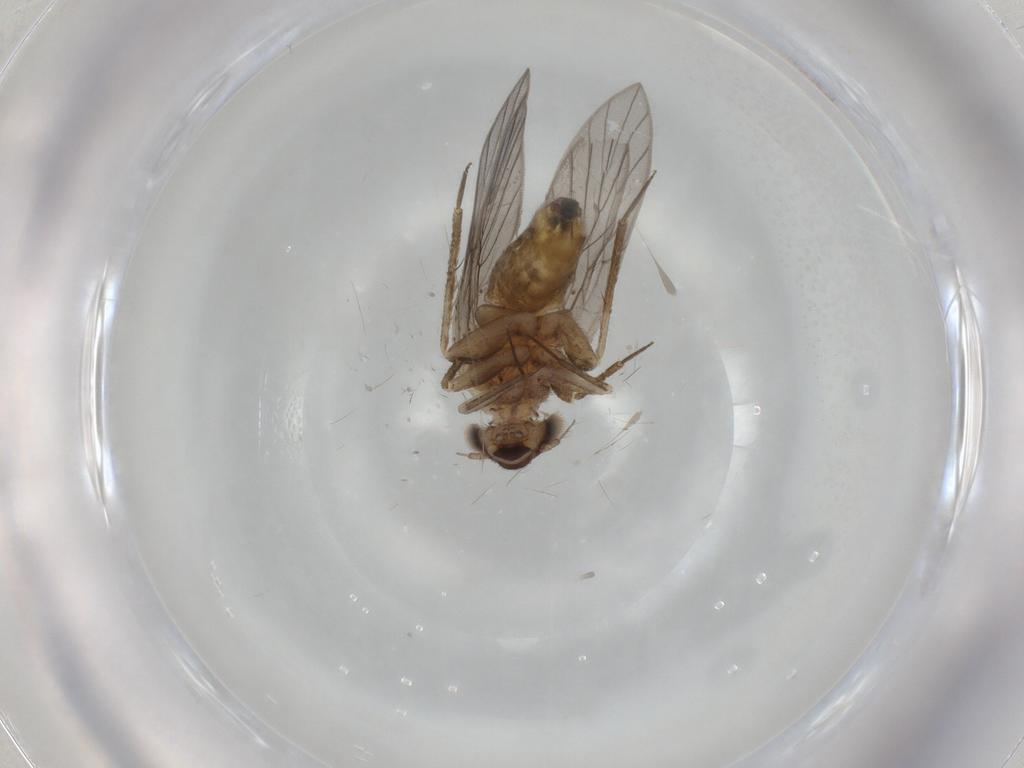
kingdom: Animalia
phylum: Arthropoda
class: Insecta
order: Psocodea
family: Lepidopsocidae
